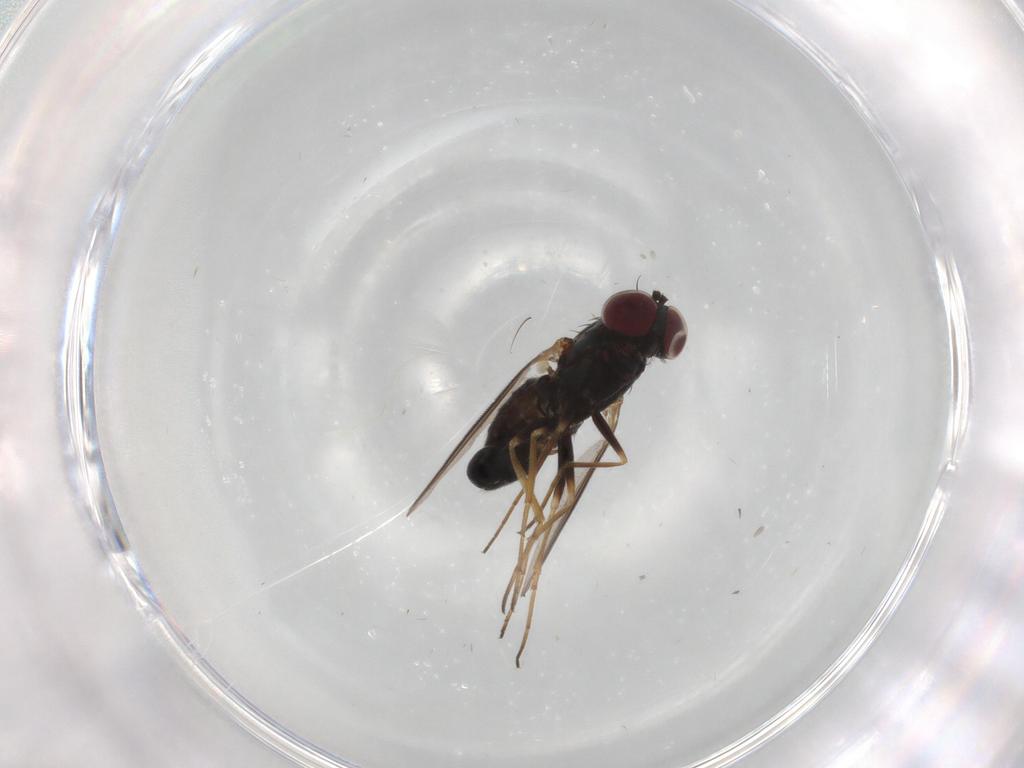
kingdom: Animalia
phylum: Arthropoda
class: Insecta
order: Diptera
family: Dolichopodidae
